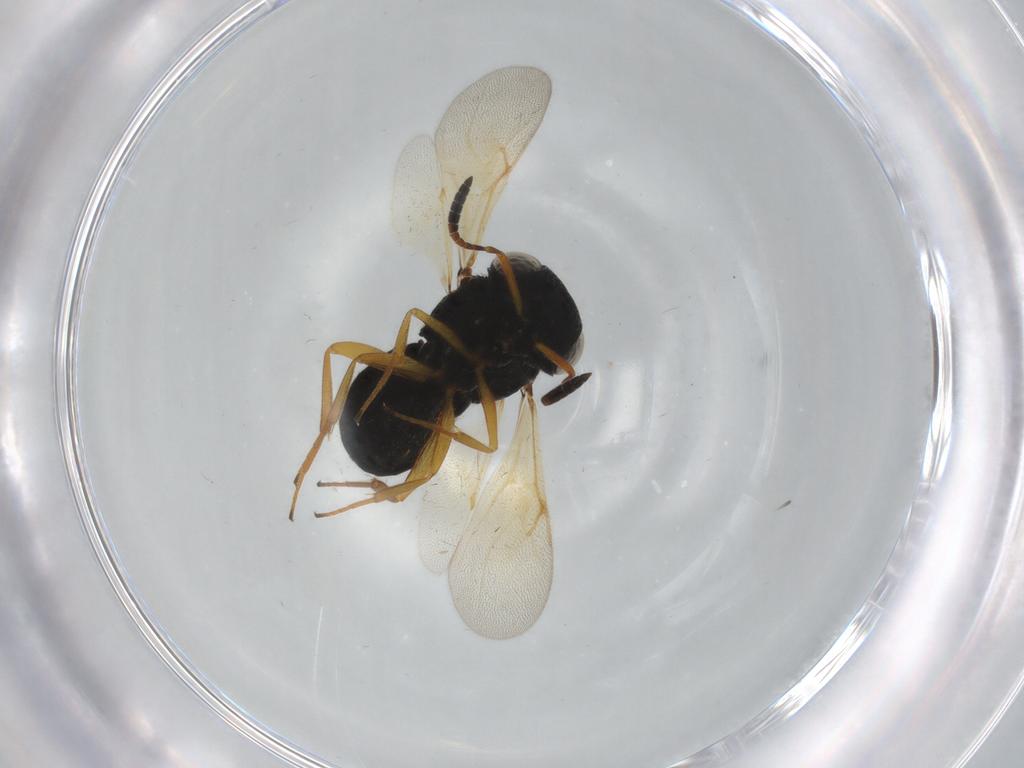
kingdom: Animalia
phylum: Arthropoda
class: Insecta
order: Hymenoptera
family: Scelionidae
